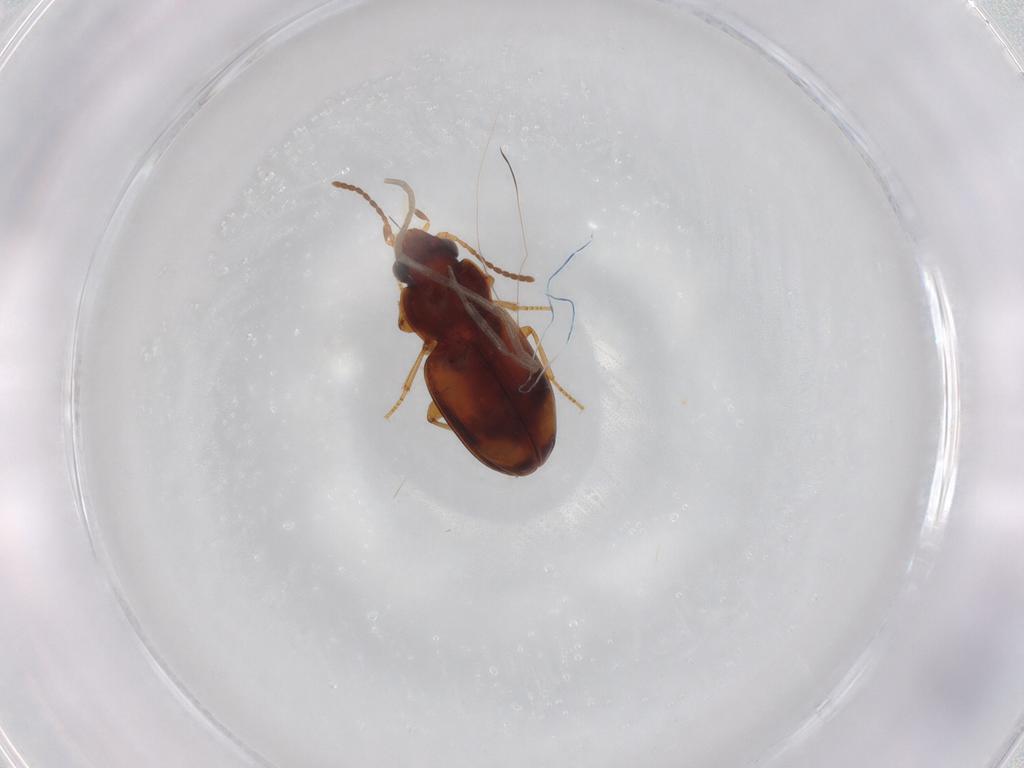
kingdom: Animalia
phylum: Arthropoda
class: Insecta
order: Coleoptera
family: Carabidae
